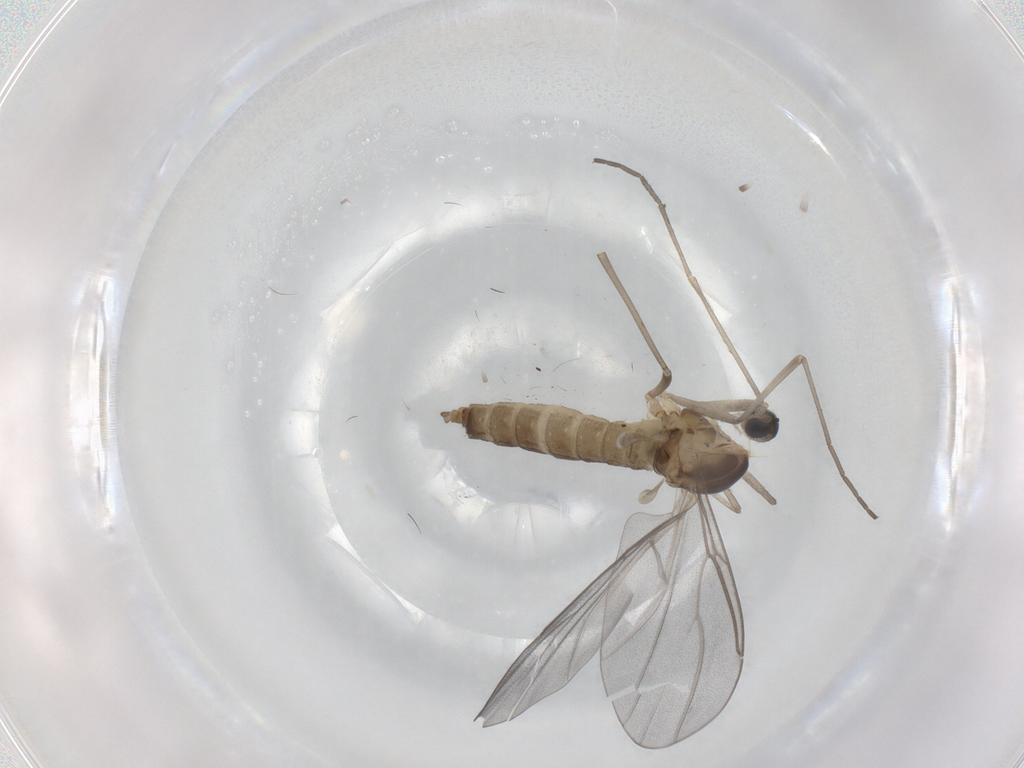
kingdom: Animalia
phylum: Arthropoda
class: Insecta
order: Diptera
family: Cecidomyiidae
